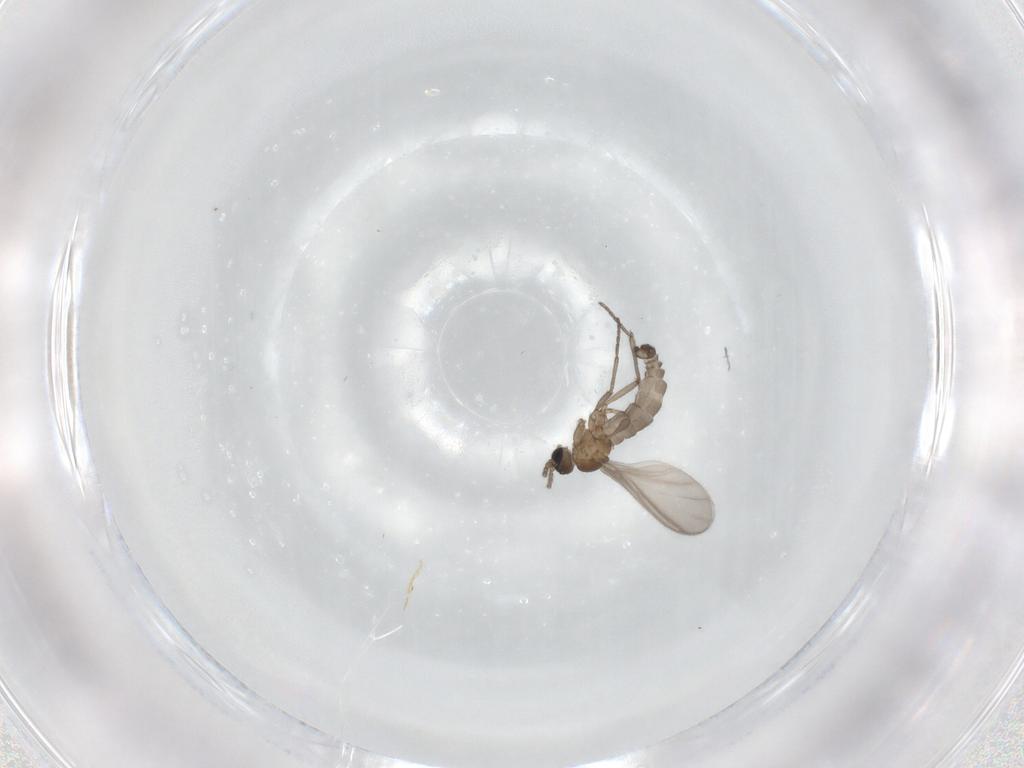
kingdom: Animalia
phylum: Arthropoda
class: Insecta
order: Diptera
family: Sciaridae
